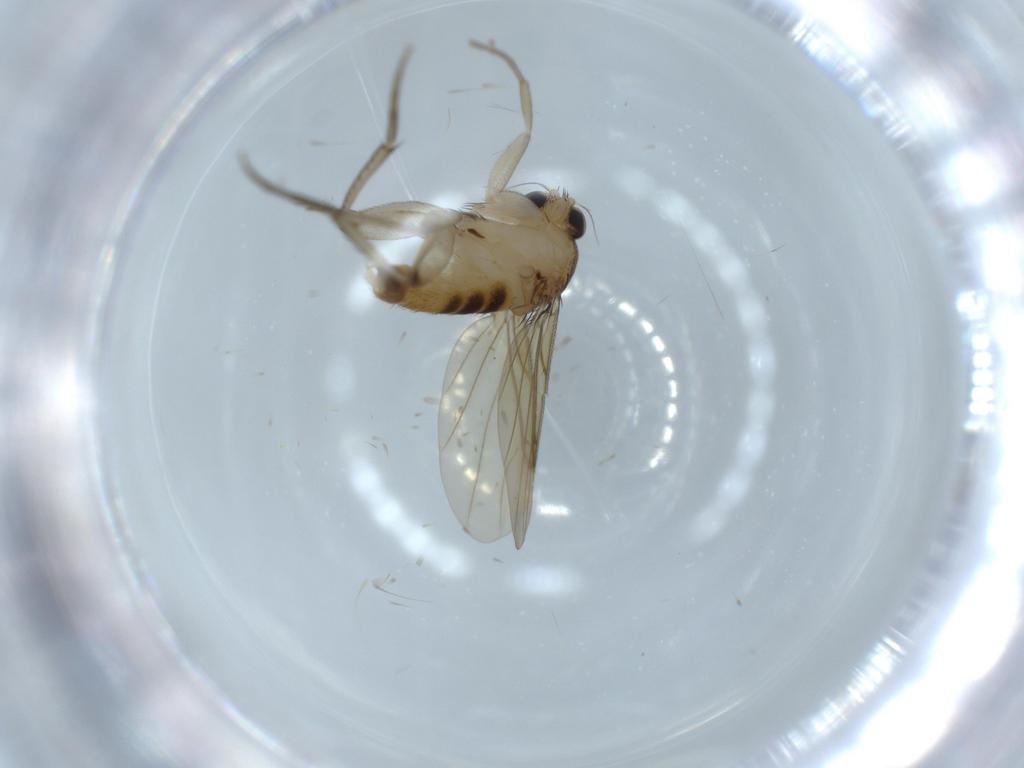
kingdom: Animalia
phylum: Arthropoda
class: Insecta
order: Diptera
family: Phoridae
